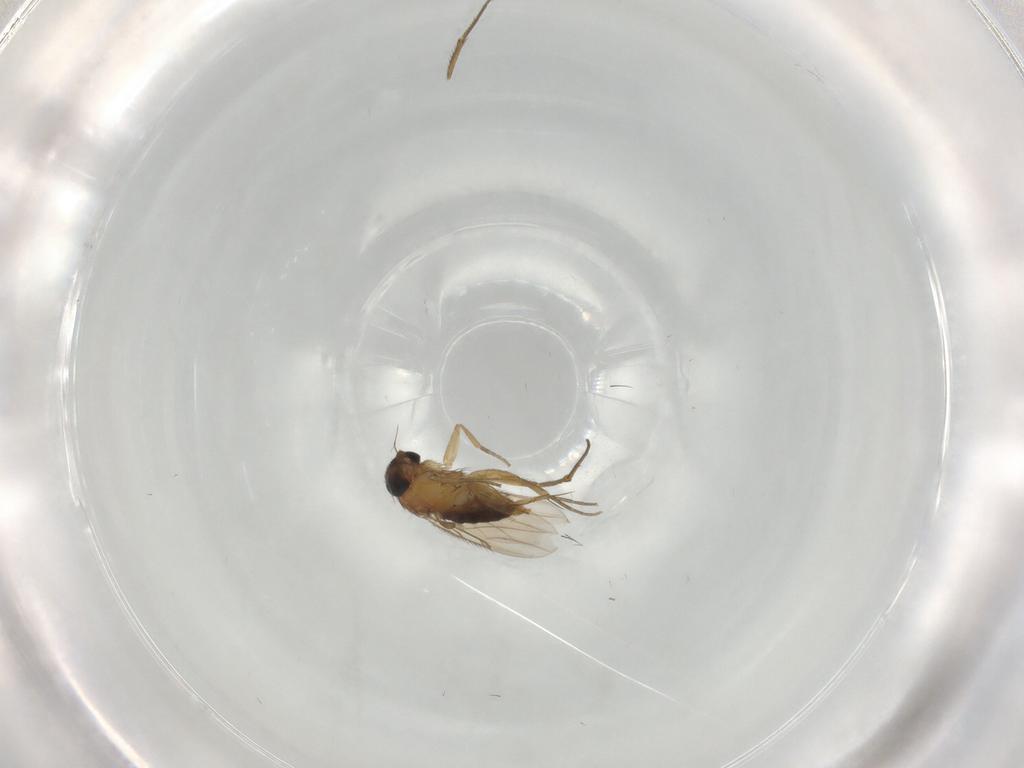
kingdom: Animalia
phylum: Arthropoda
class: Insecta
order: Diptera
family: Phoridae
